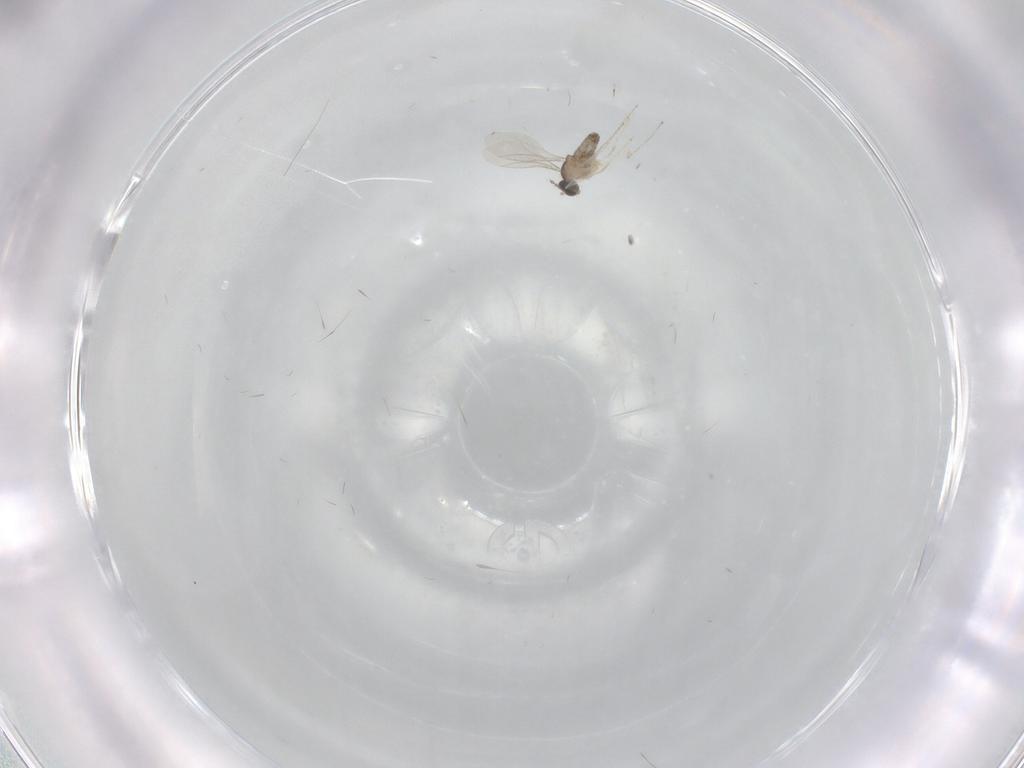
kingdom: Animalia
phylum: Arthropoda
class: Insecta
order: Diptera
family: Cecidomyiidae
